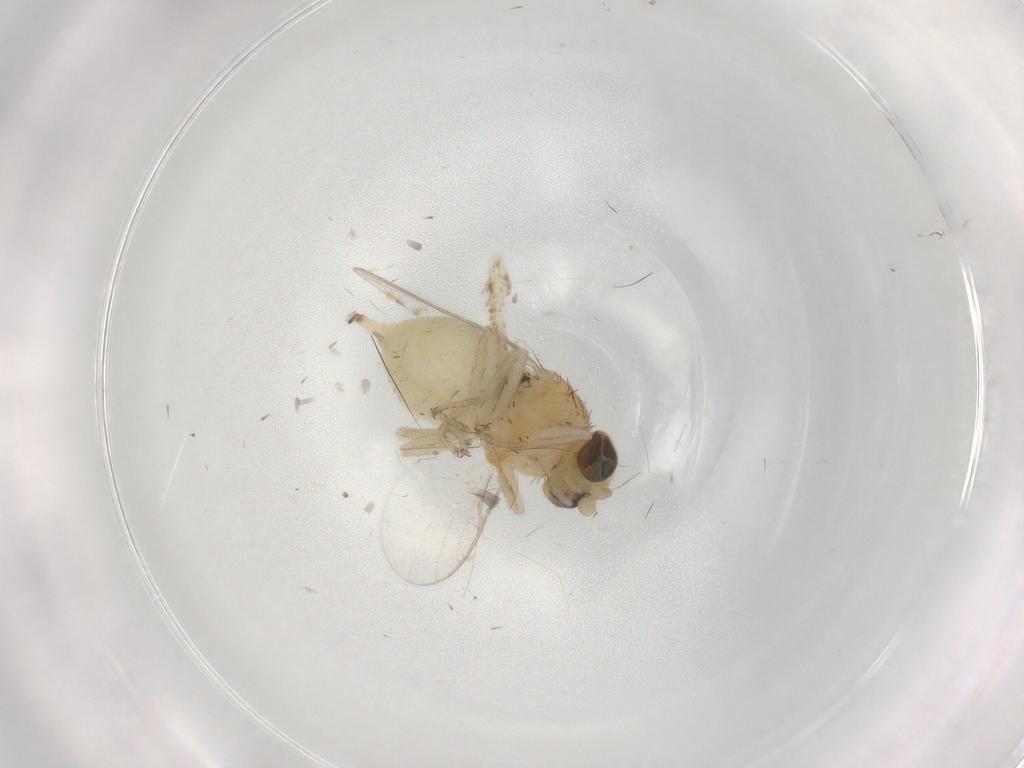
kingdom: Animalia
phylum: Arthropoda
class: Insecta
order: Diptera
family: Chloropidae
